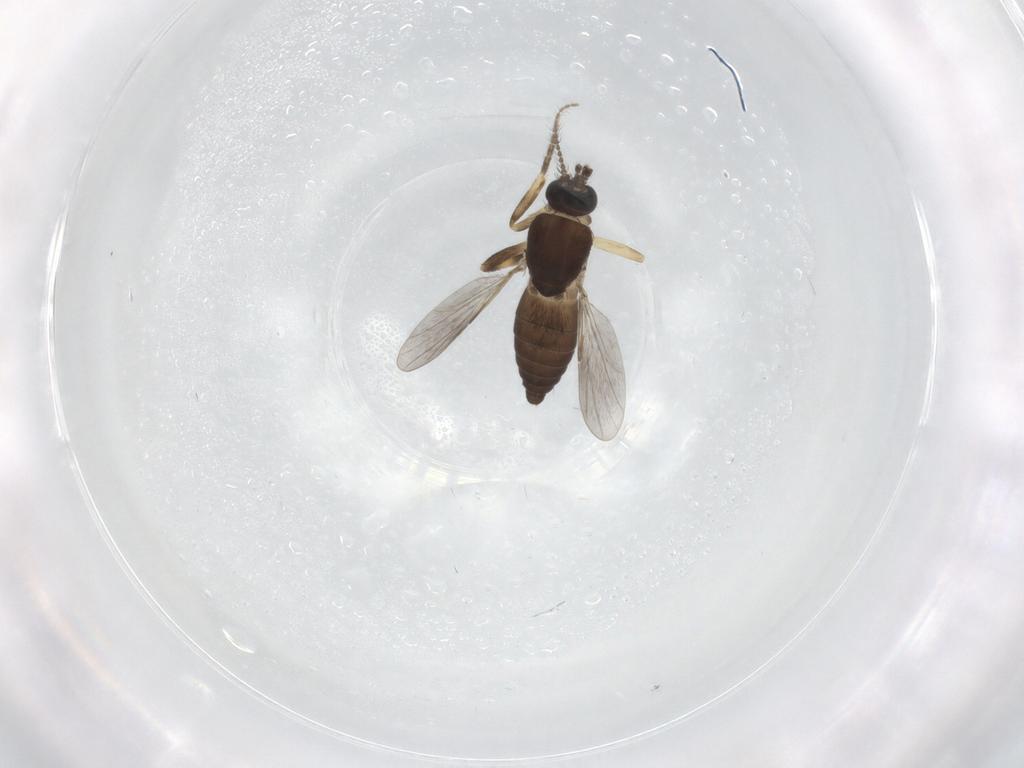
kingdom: Animalia
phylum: Arthropoda
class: Insecta
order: Diptera
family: Ceratopogonidae
